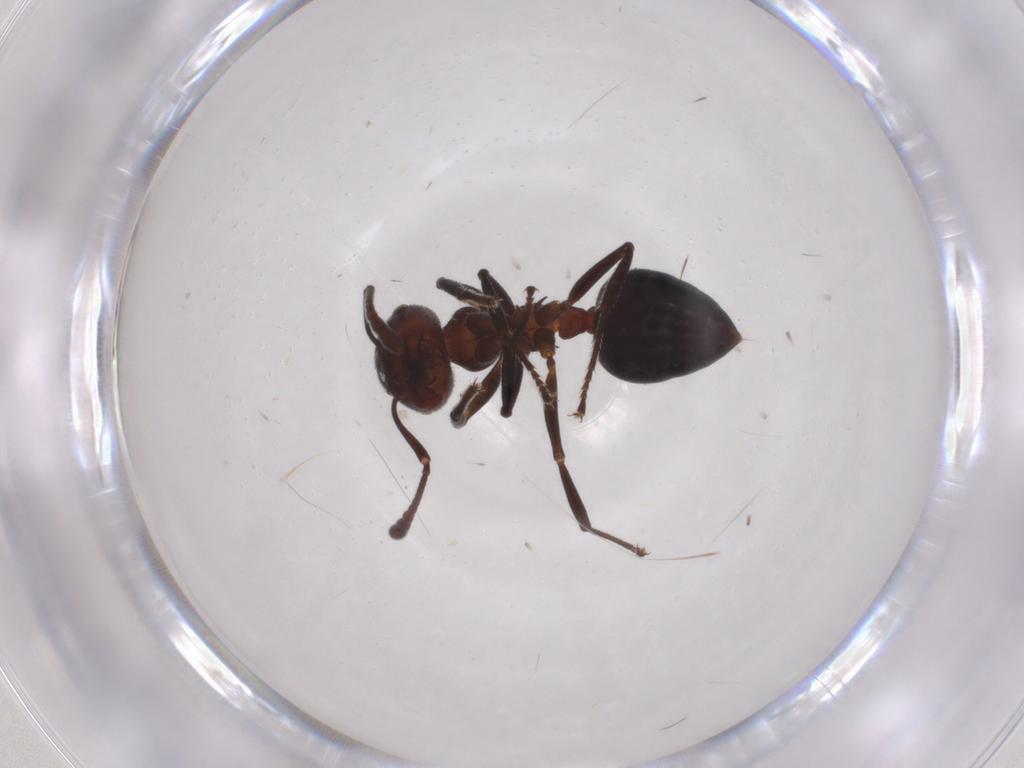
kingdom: Animalia
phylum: Arthropoda
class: Insecta
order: Hymenoptera
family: Formicidae
